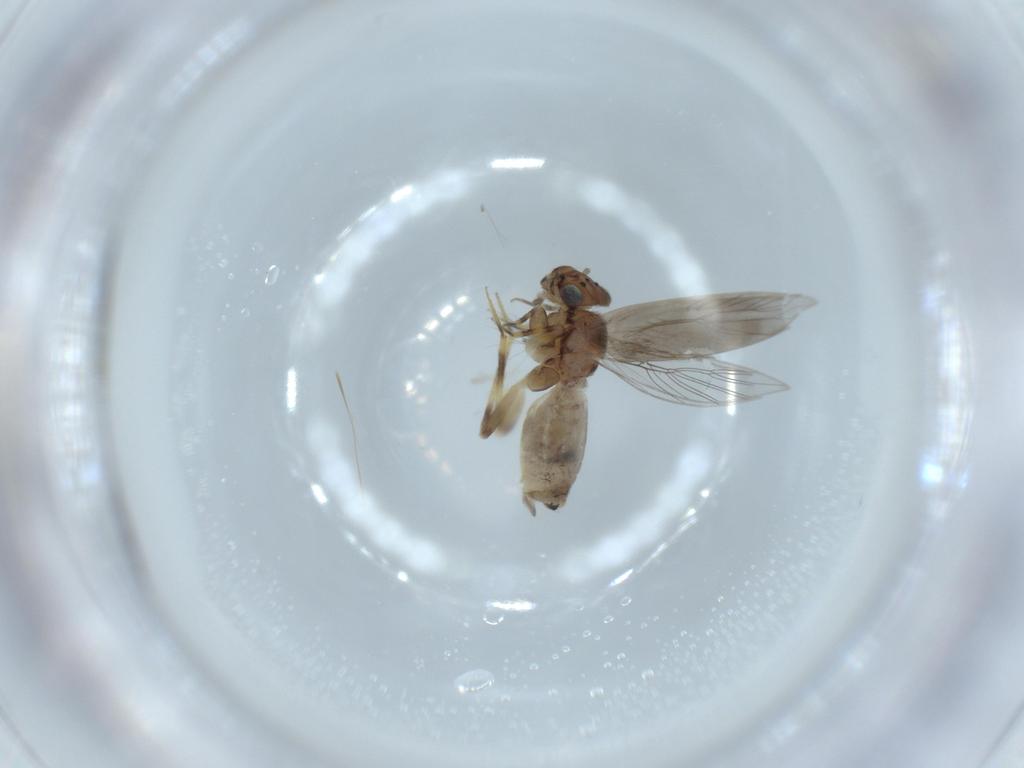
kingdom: Animalia
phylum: Arthropoda
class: Insecta
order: Psocodea
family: Lepidopsocidae
